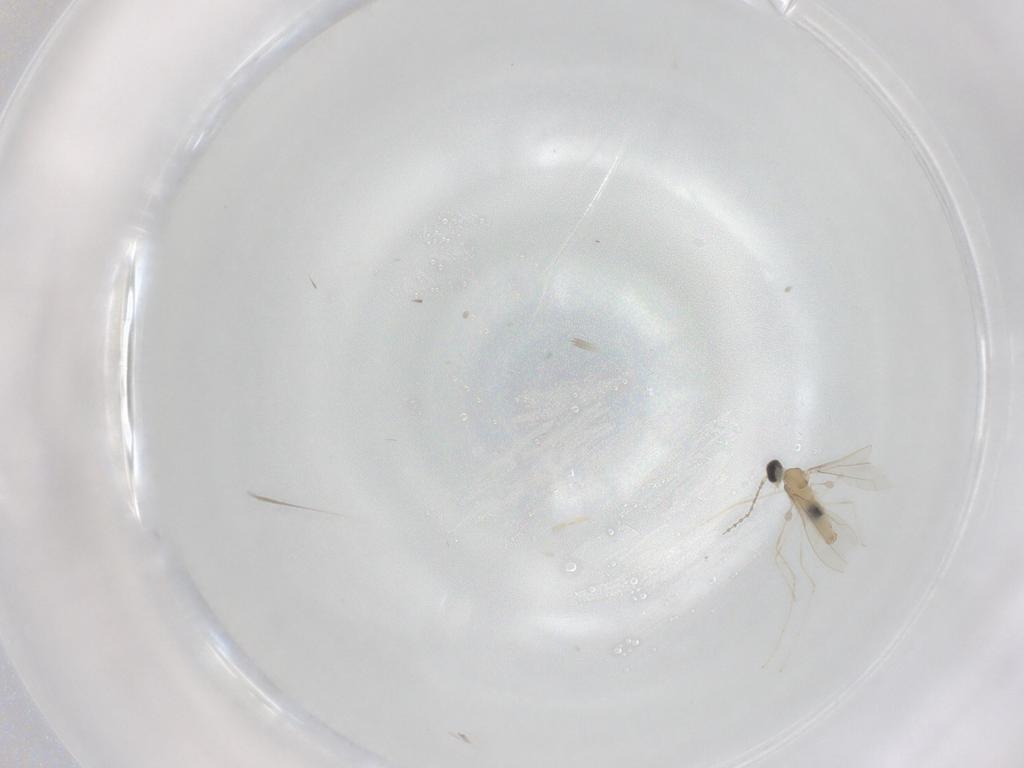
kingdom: Animalia
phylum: Arthropoda
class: Insecta
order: Diptera
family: Cecidomyiidae
